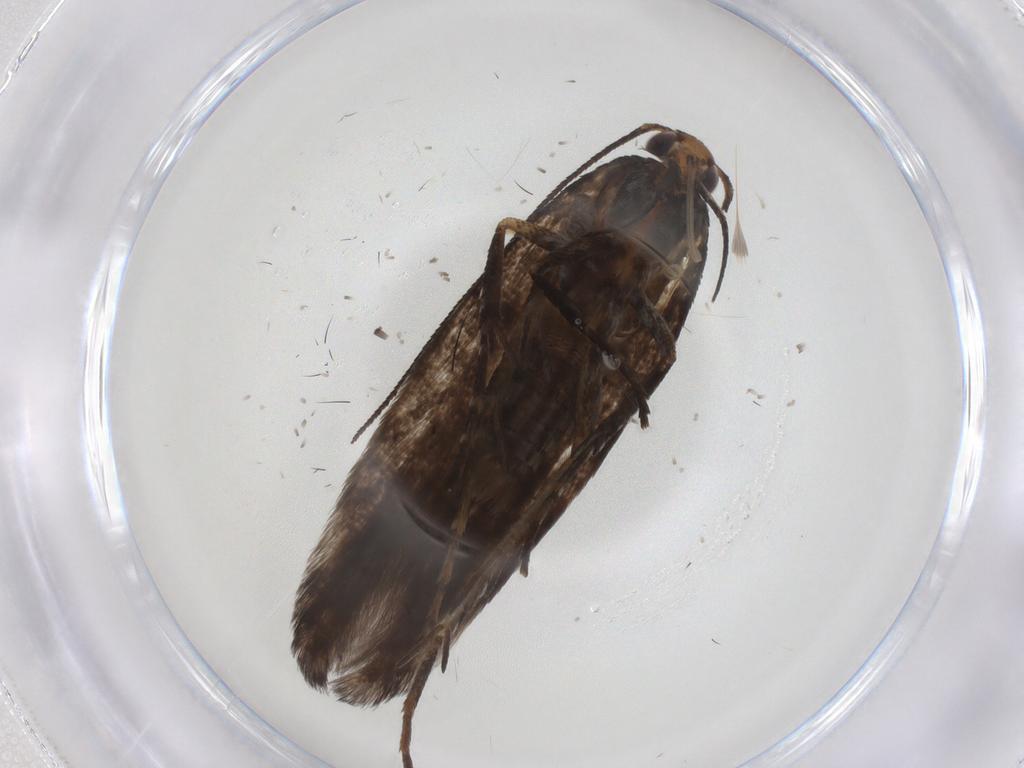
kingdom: Animalia
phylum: Arthropoda
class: Insecta
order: Lepidoptera
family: Gelechiidae
